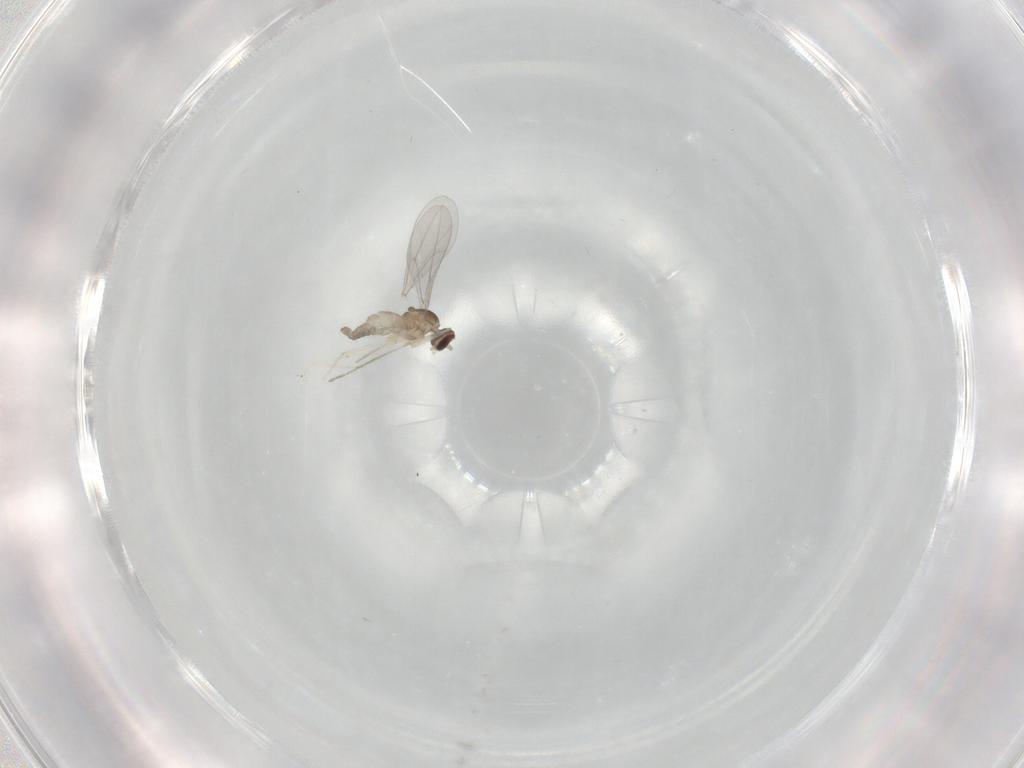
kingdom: Animalia
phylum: Arthropoda
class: Insecta
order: Diptera
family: Cecidomyiidae
